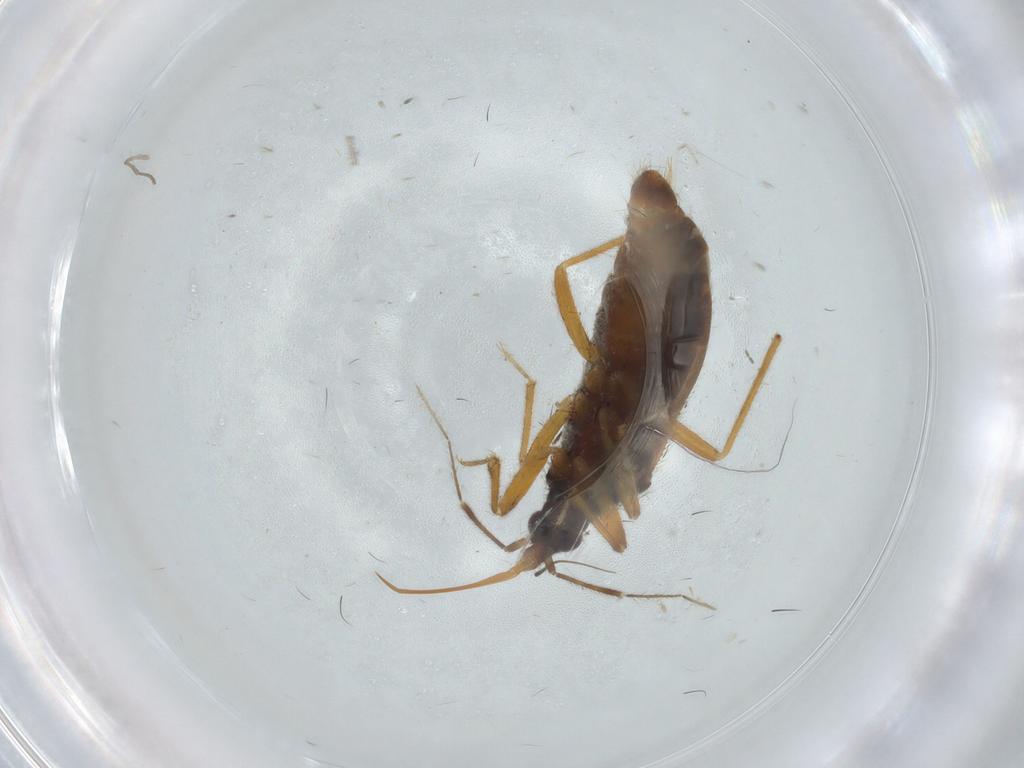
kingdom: Animalia
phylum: Arthropoda
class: Insecta
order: Hemiptera
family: Anthocoridae
